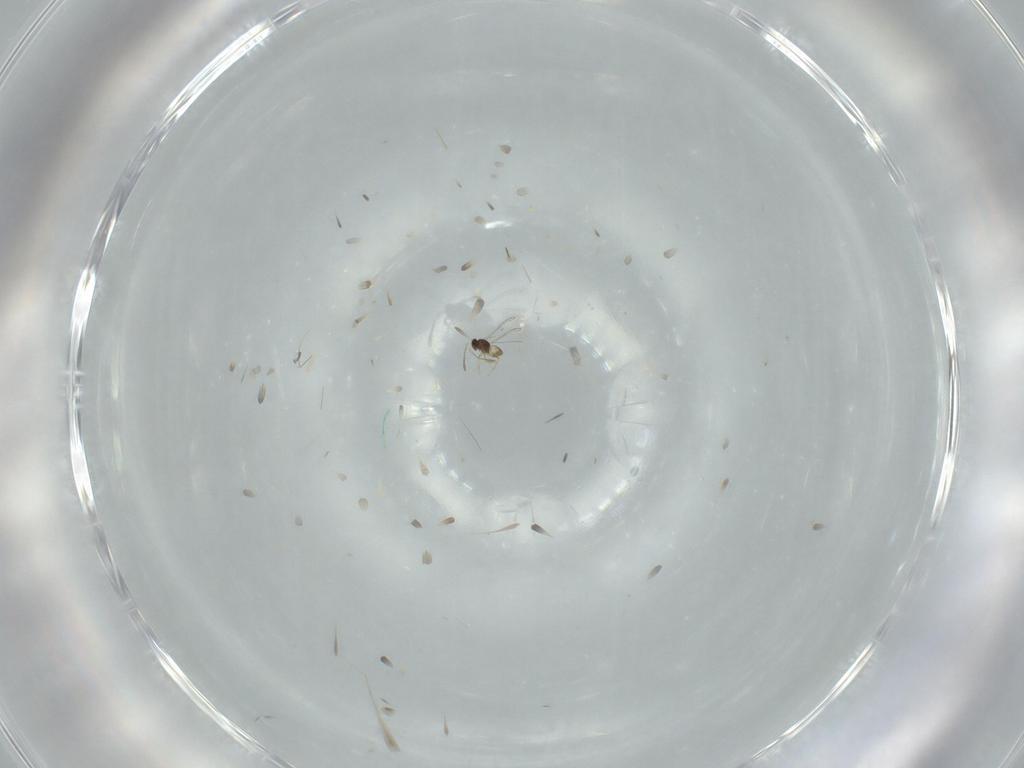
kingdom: Animalia
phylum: Arthropoda
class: Insecta
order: Hymenoptera
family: Mymaridae
